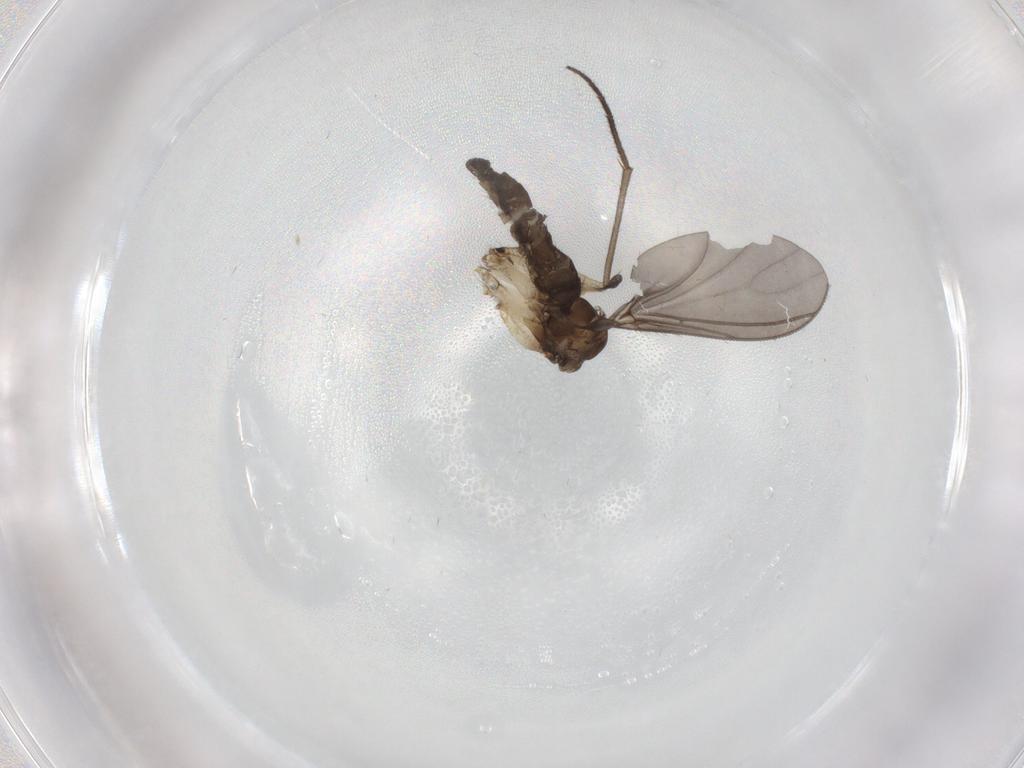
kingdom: Animalia
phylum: Arthropoda
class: Insecta
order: Diptera
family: Sciaridae
